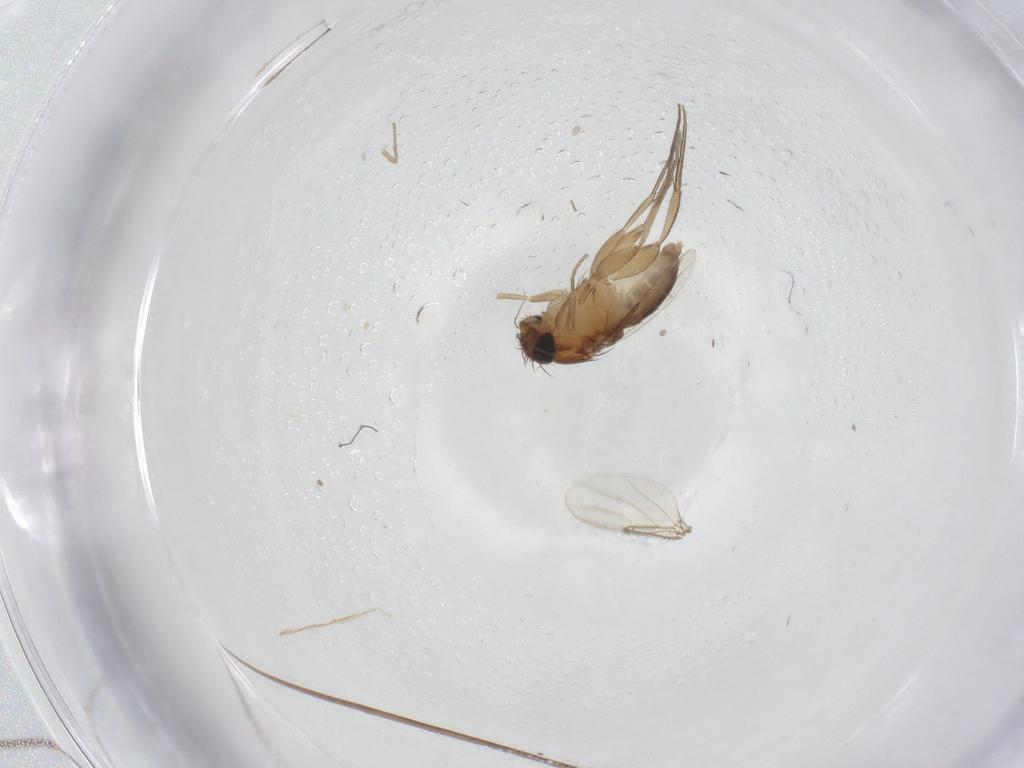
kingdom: Animalia
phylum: Arthropoda
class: Insecta
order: Diptera
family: Phoridae
